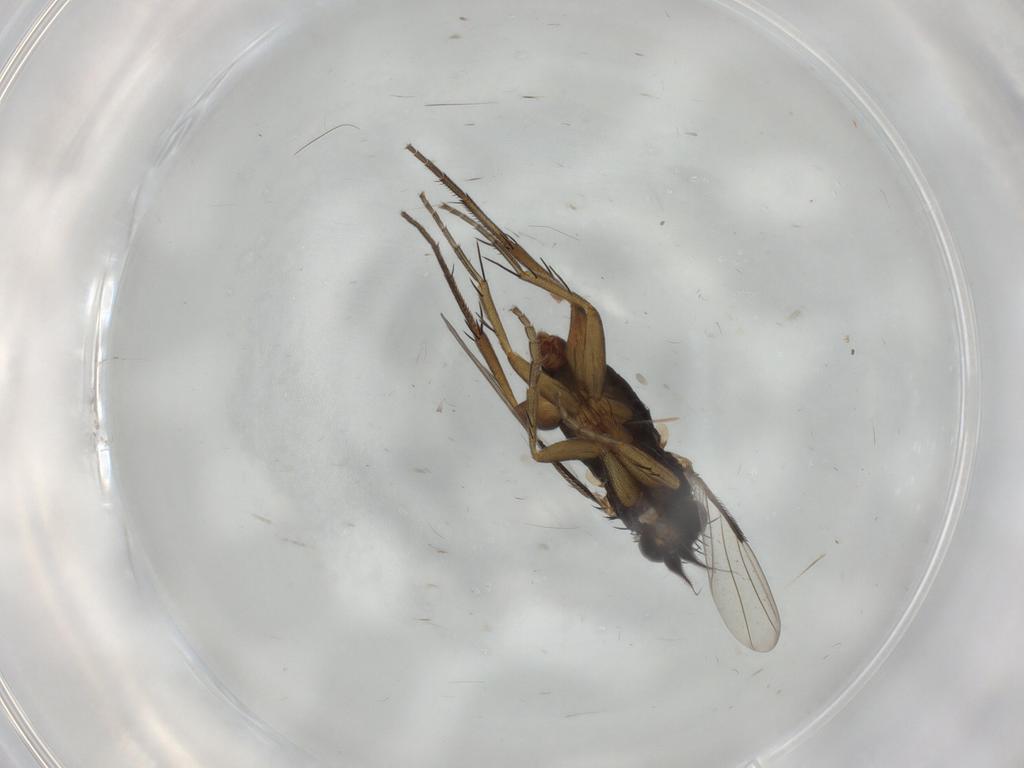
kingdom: Animalia
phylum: Arthropoda
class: Insecta
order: Diptera
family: Phoridae
